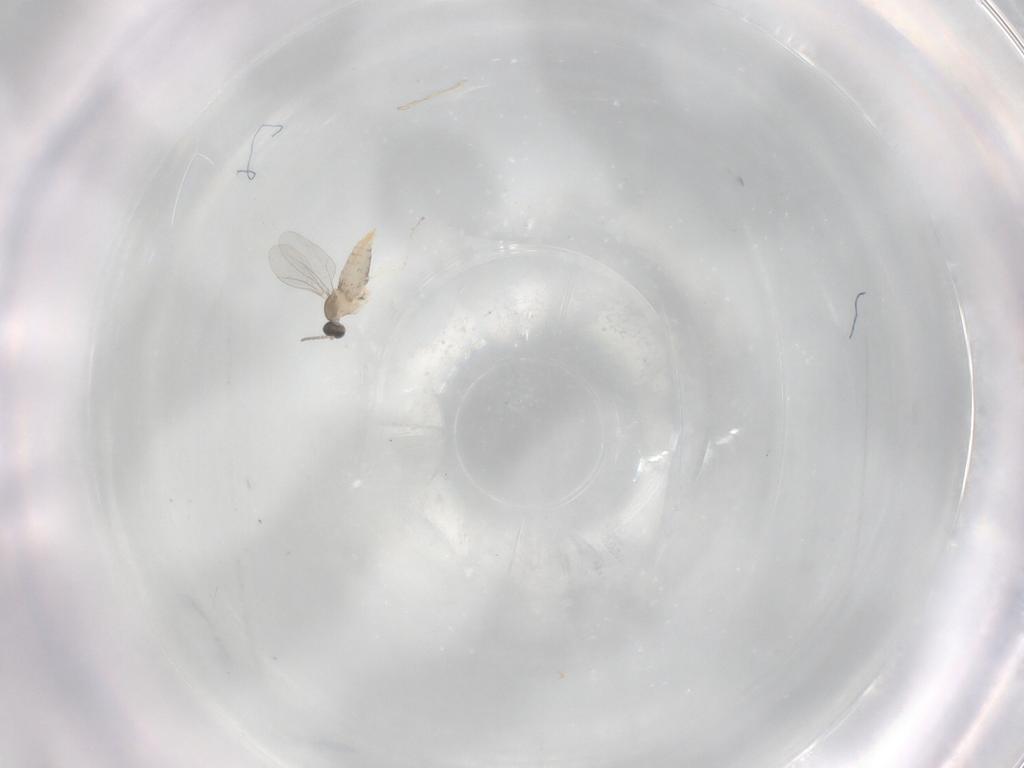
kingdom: Animalia
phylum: Arthropoda
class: Insecta
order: Diptera
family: Cecidomyiidae
